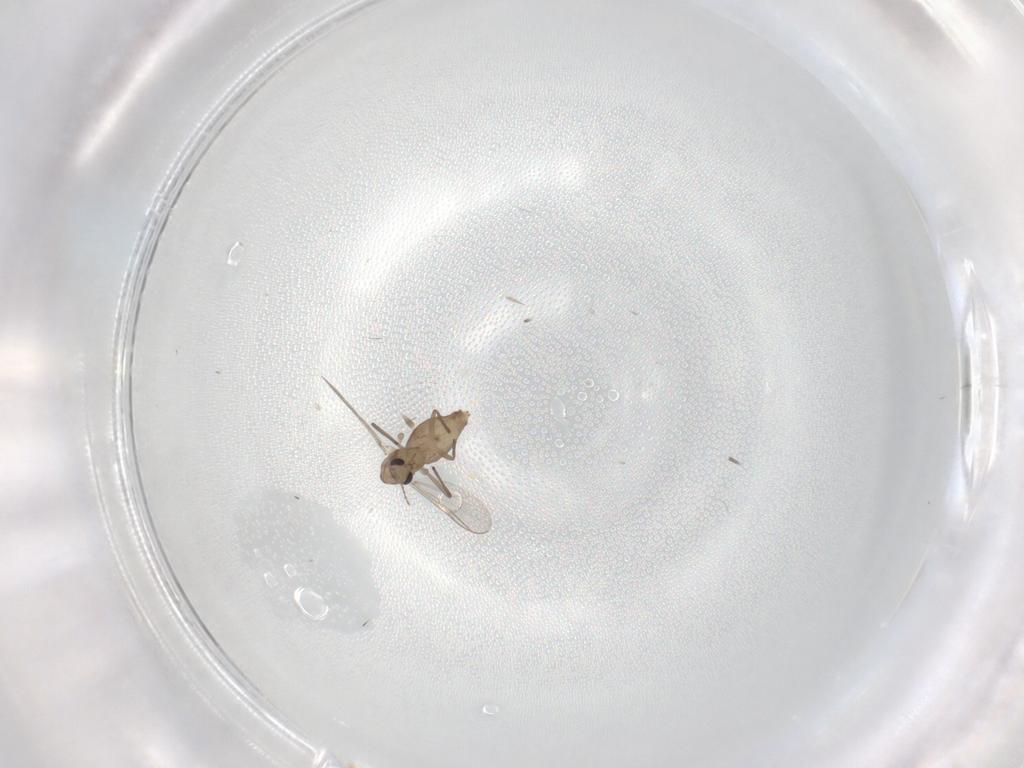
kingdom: Animalia
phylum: Arthropoda
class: Insecta
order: Diptera
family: Chironomidae
